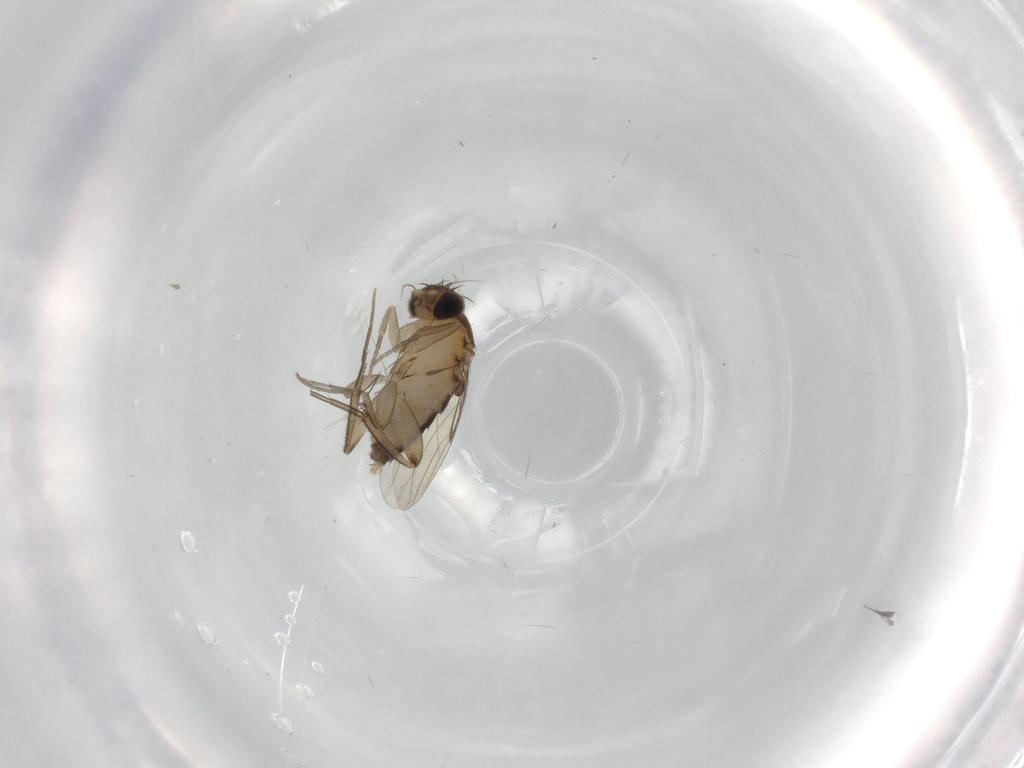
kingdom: Animalia
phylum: Arthropoda
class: Insecta
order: Diptera
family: Phoridae
